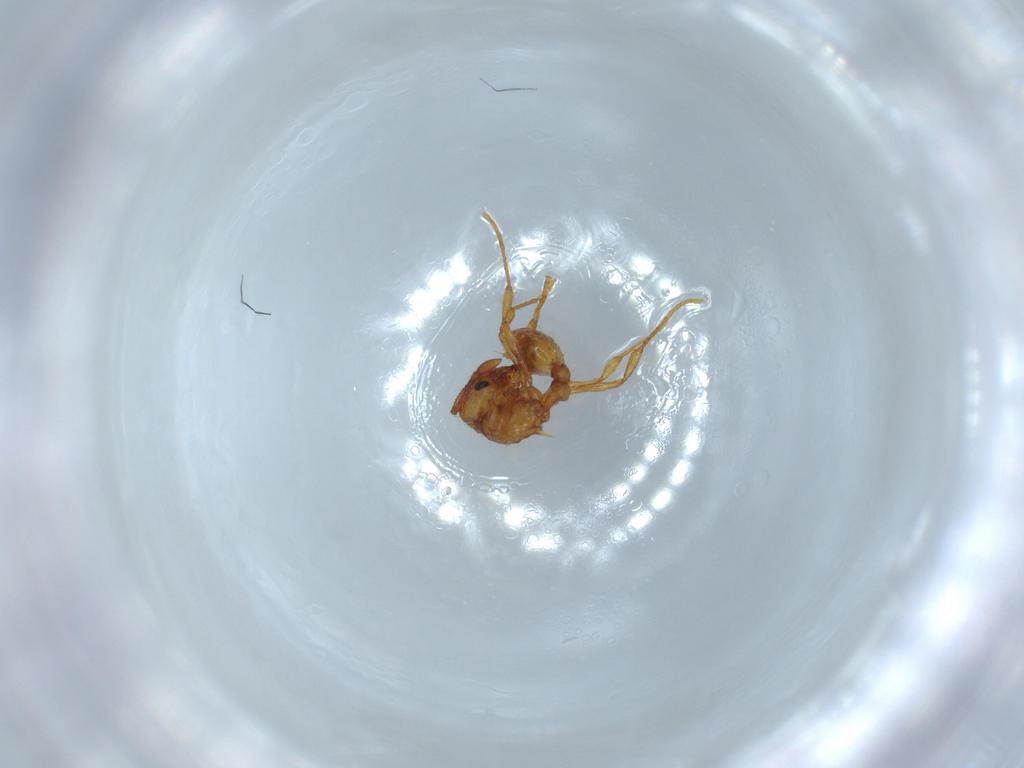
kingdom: Animalia
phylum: Arthropoda
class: Insecta
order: Hymenoptera
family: Formicidae
